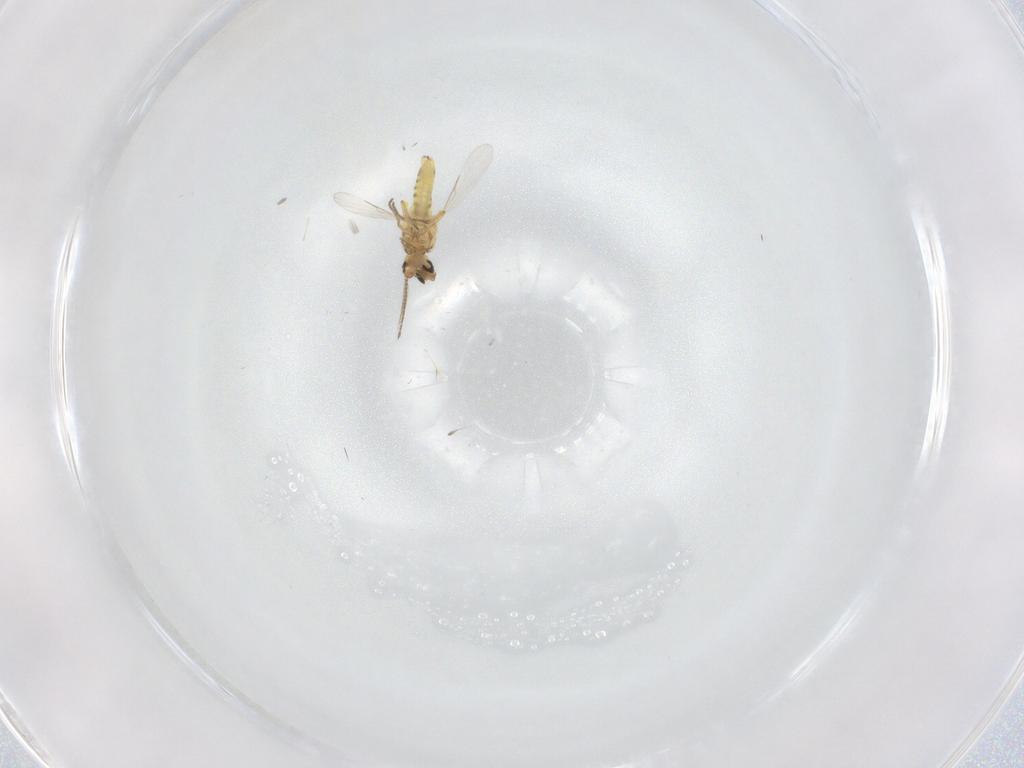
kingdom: Animalia
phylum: Arthropoda
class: Insecta
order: Diptera
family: Ceratopogonidae
